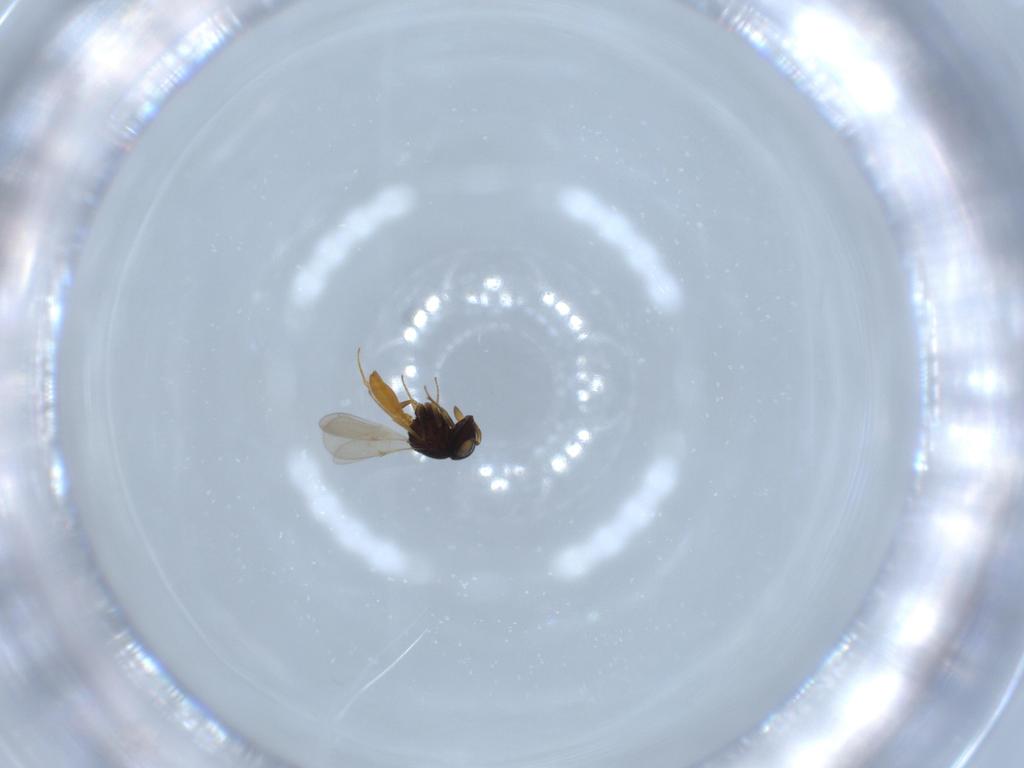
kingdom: Animalia
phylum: Arthropoda
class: Insecta
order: Hymenoptera
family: Scelionidae
